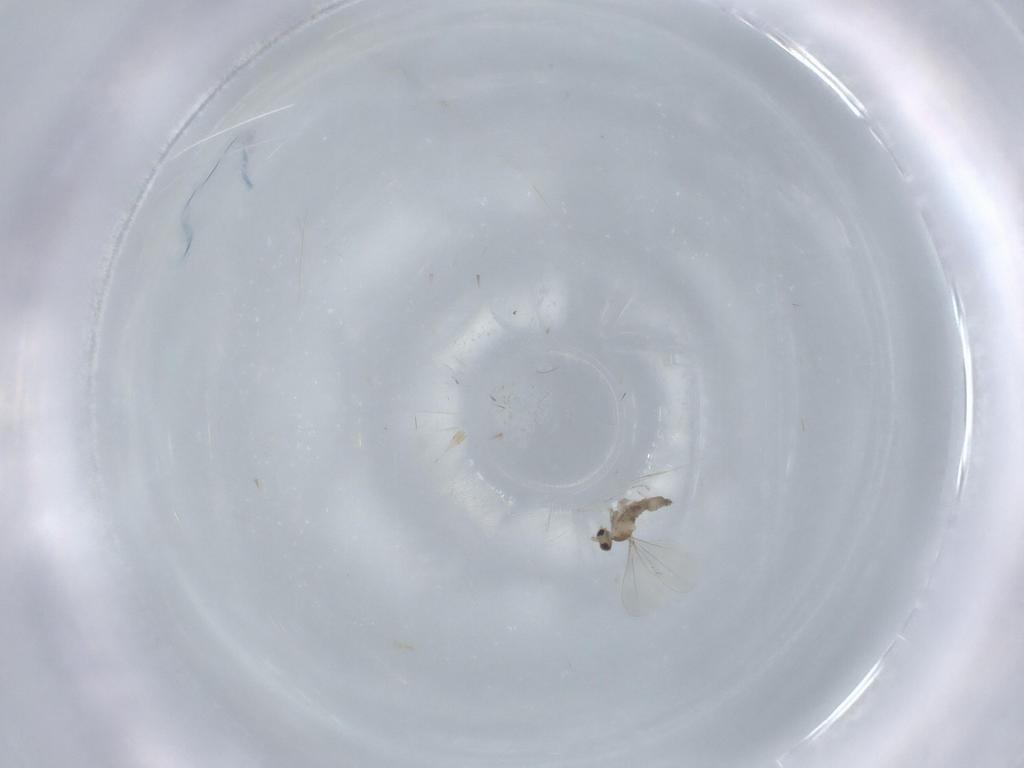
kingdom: Animalia
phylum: Arthropoda
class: Insecta
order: Diptera
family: Cecidomyiidae
